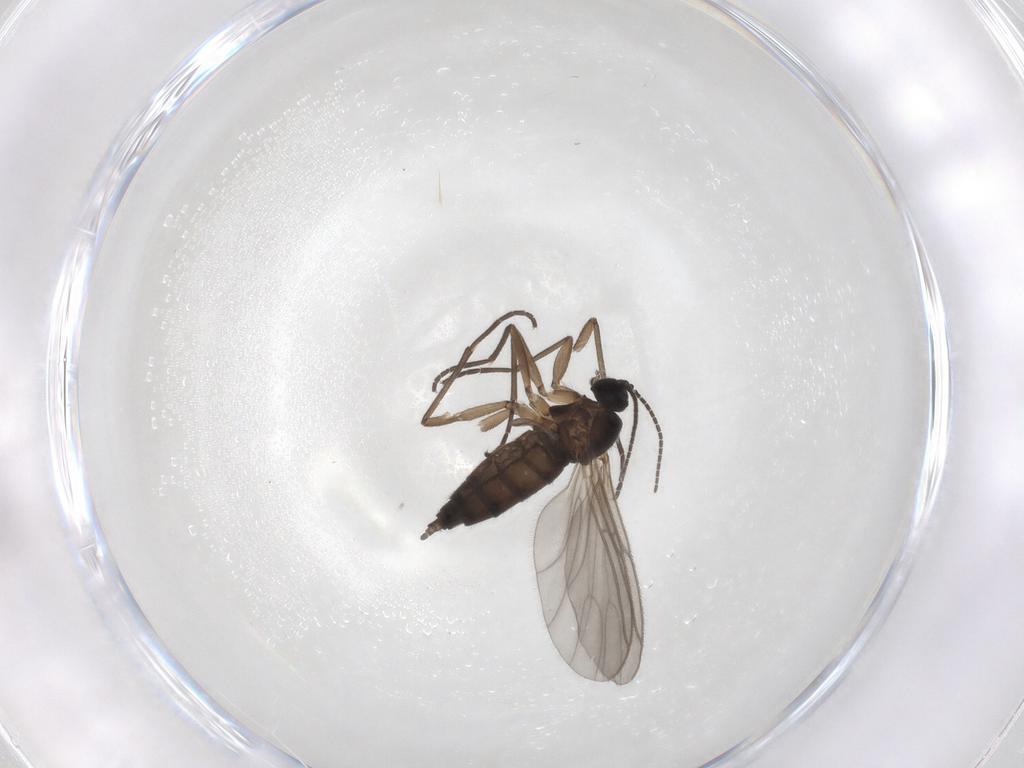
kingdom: Animalia
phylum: Arthropoda
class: Insecta
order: Diptera
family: Sciaridae
